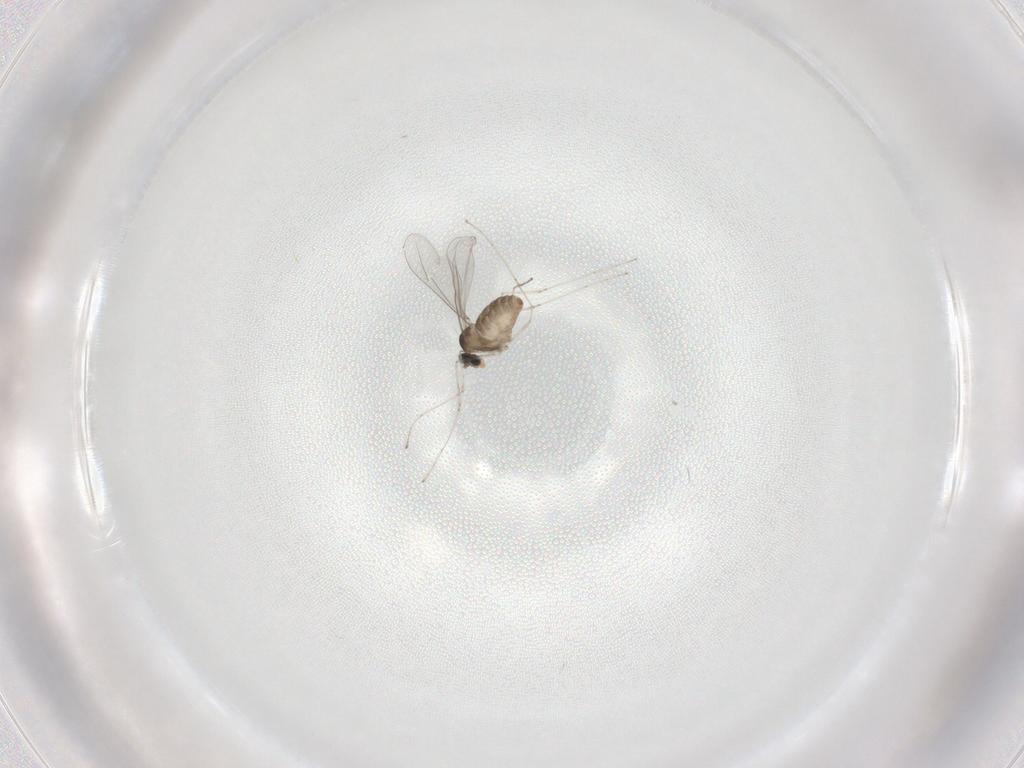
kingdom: Animalia
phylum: Arthropoda
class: Insecta
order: Diptera
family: Cecidomyiidae
